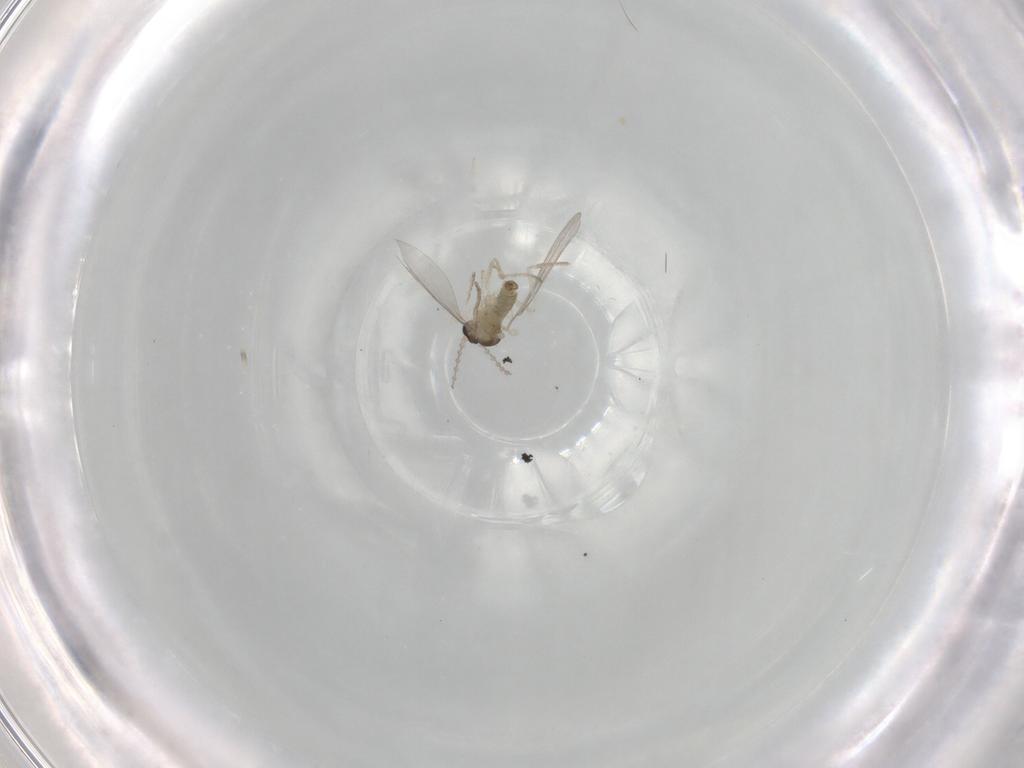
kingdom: Animalia
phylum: Arthropoda
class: Insecta
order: Diptera
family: Cecidomyiidae
